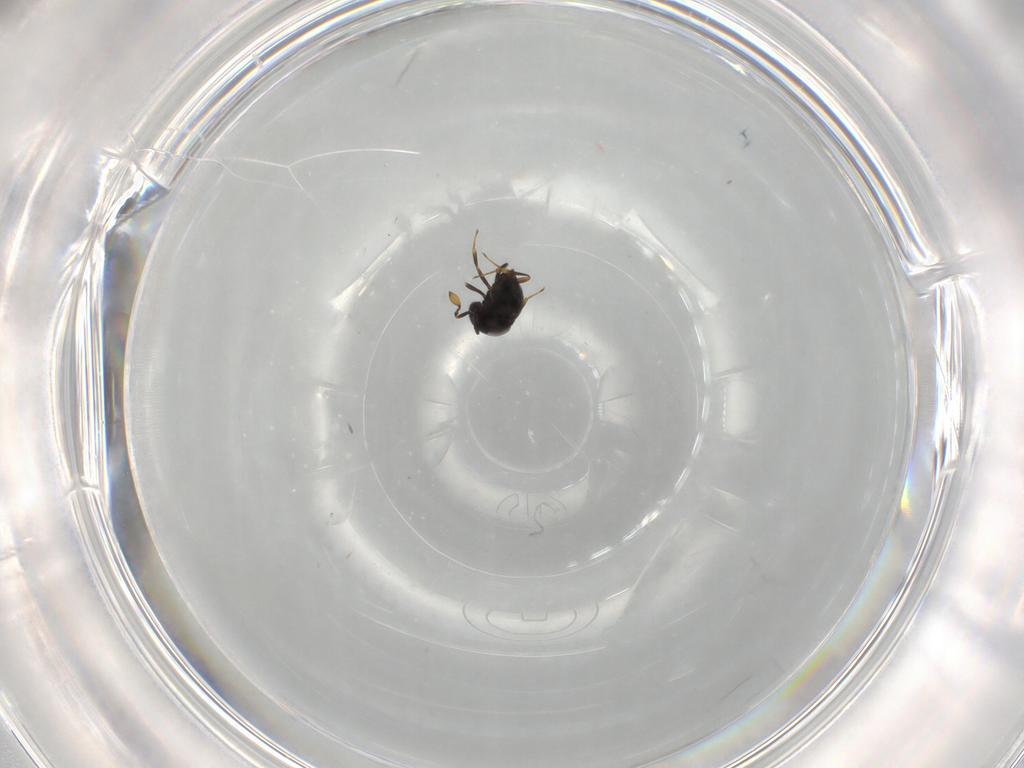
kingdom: Animalia
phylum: Arthropoda
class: Insecta
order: Hymenoptera
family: Scelionidae
